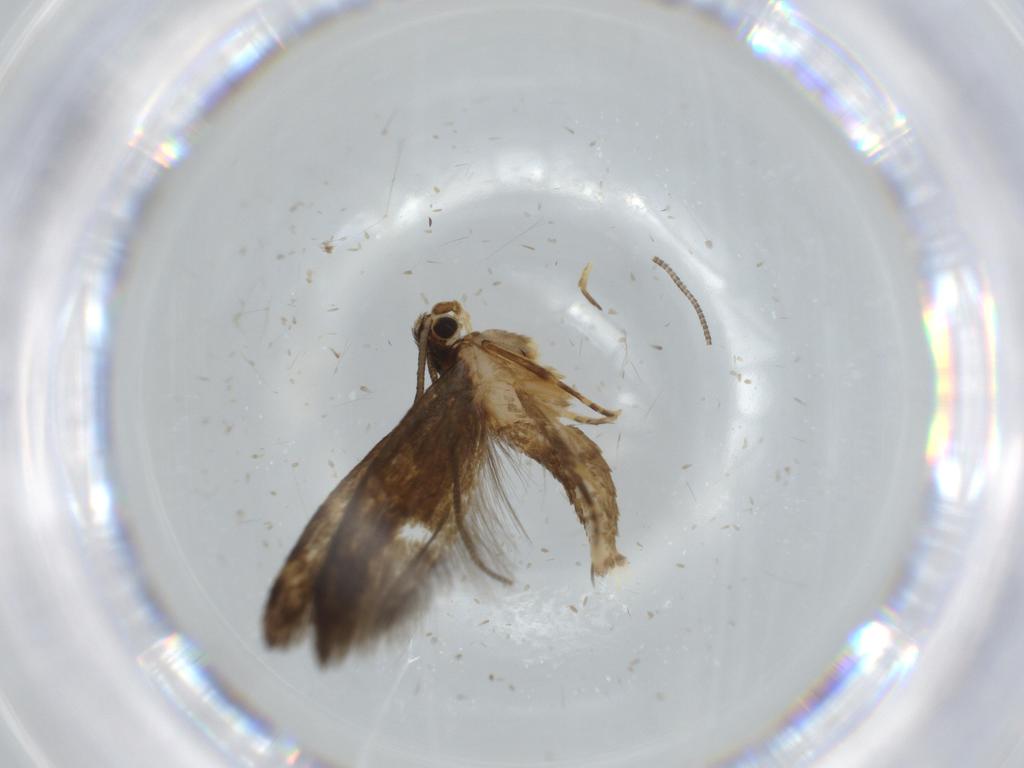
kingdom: Animalia
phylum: Arthropoda
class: Insecta
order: Lepidoptera
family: Tineidae
